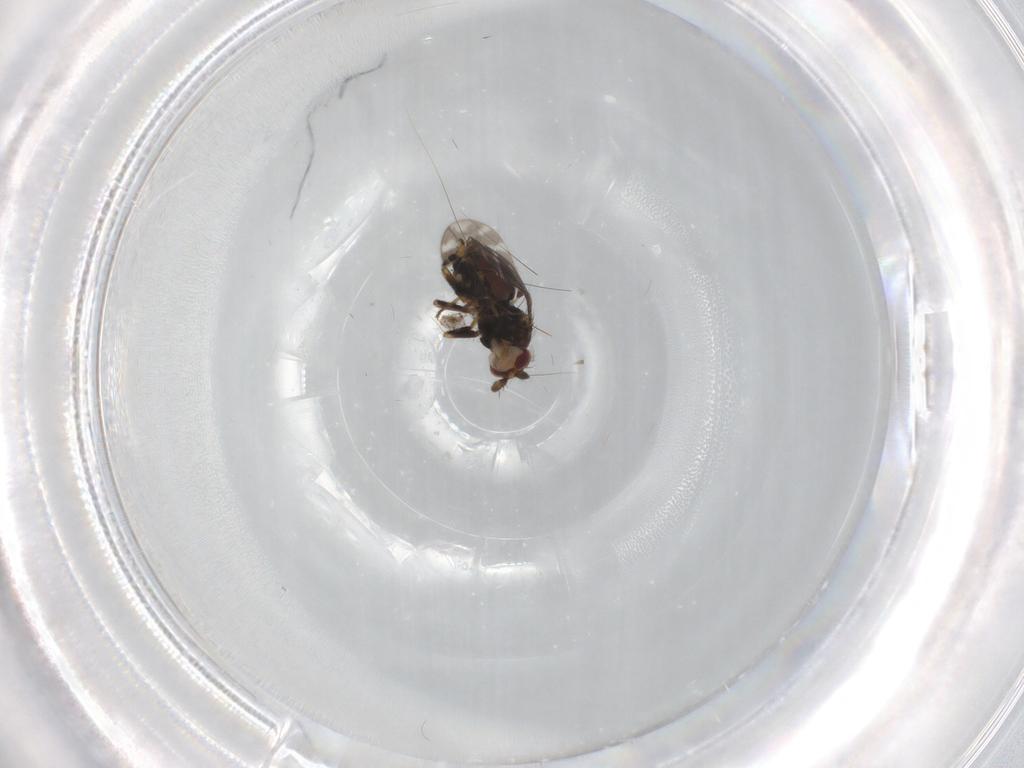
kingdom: Animalia
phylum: Arthropoda
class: Insecta
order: Diptera
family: Sphaeroceridae
